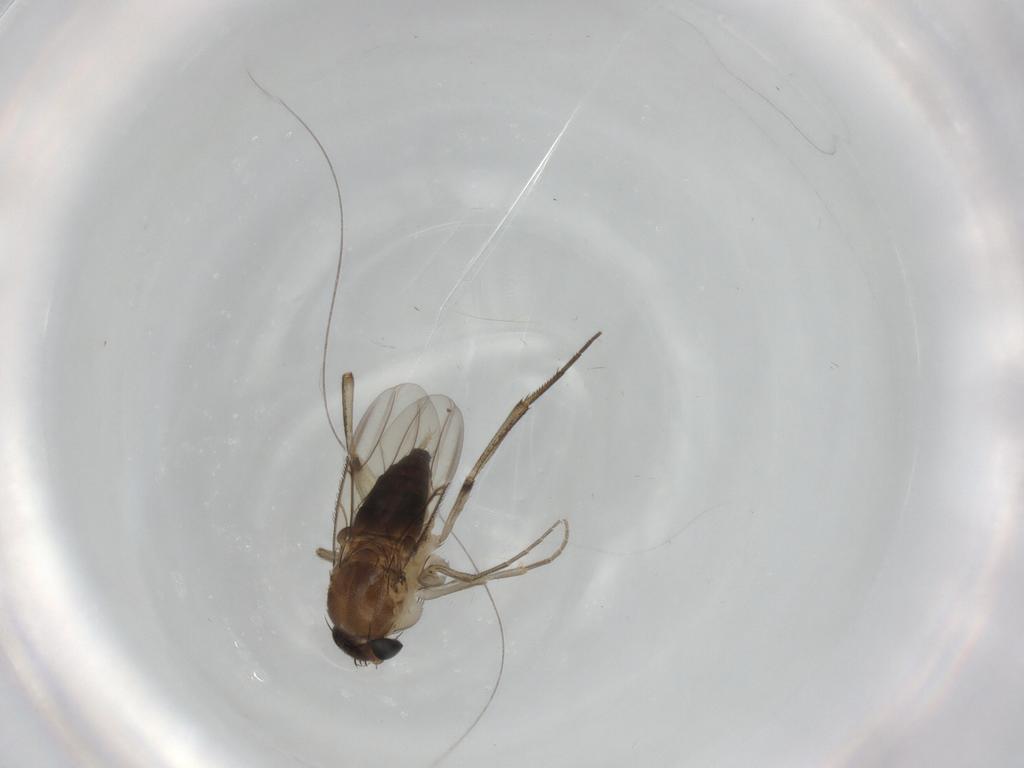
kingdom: Animalia
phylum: Arthropoda
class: Insecta
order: Diptera
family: Phoridae
